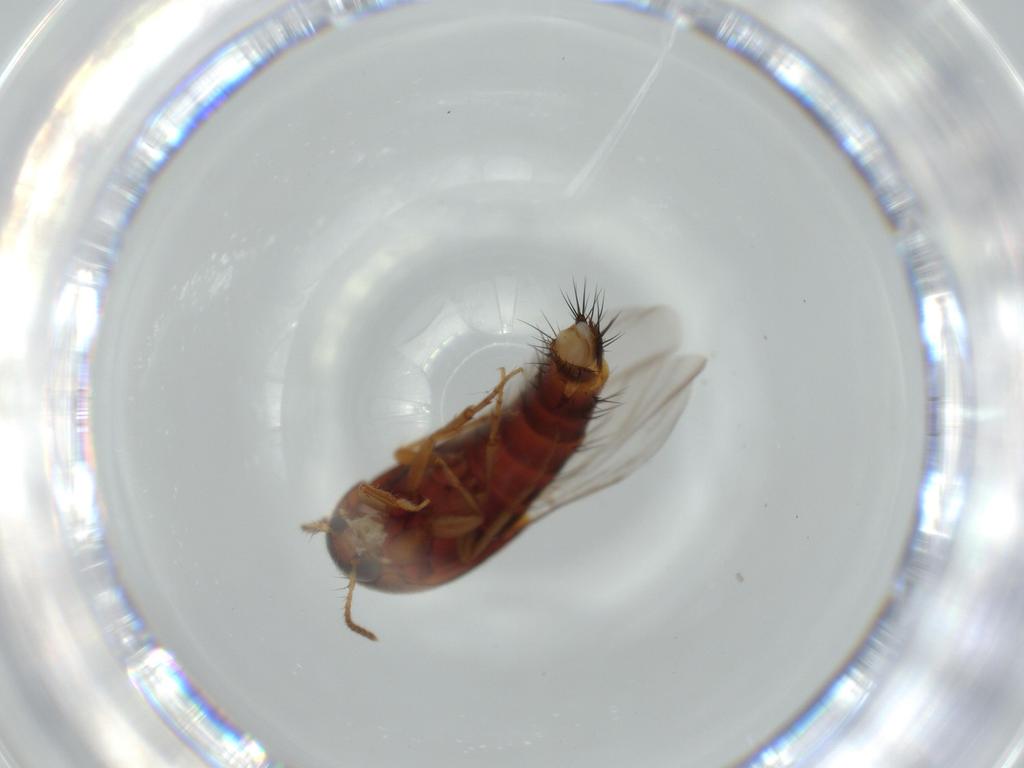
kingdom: Animalia
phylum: Arthropoda
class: Insecta
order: Coleoptera
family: Staphylinidae
